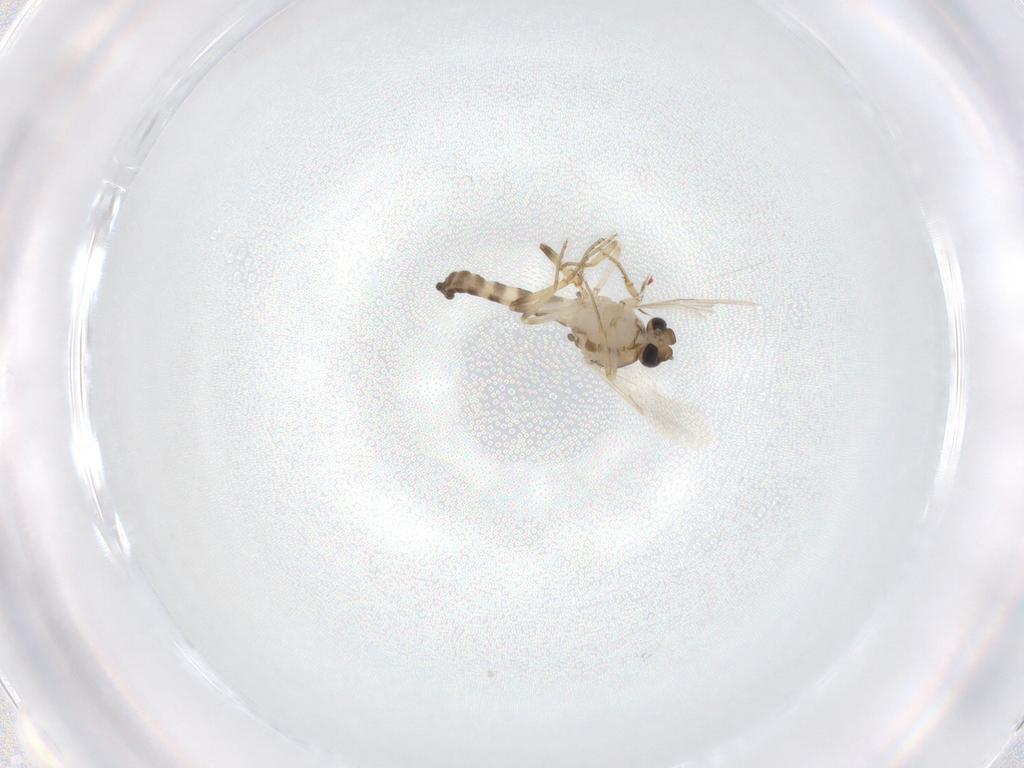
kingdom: Animalia
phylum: Arthropoda
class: Insecta
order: Diptera
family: Ceratopogonidae
